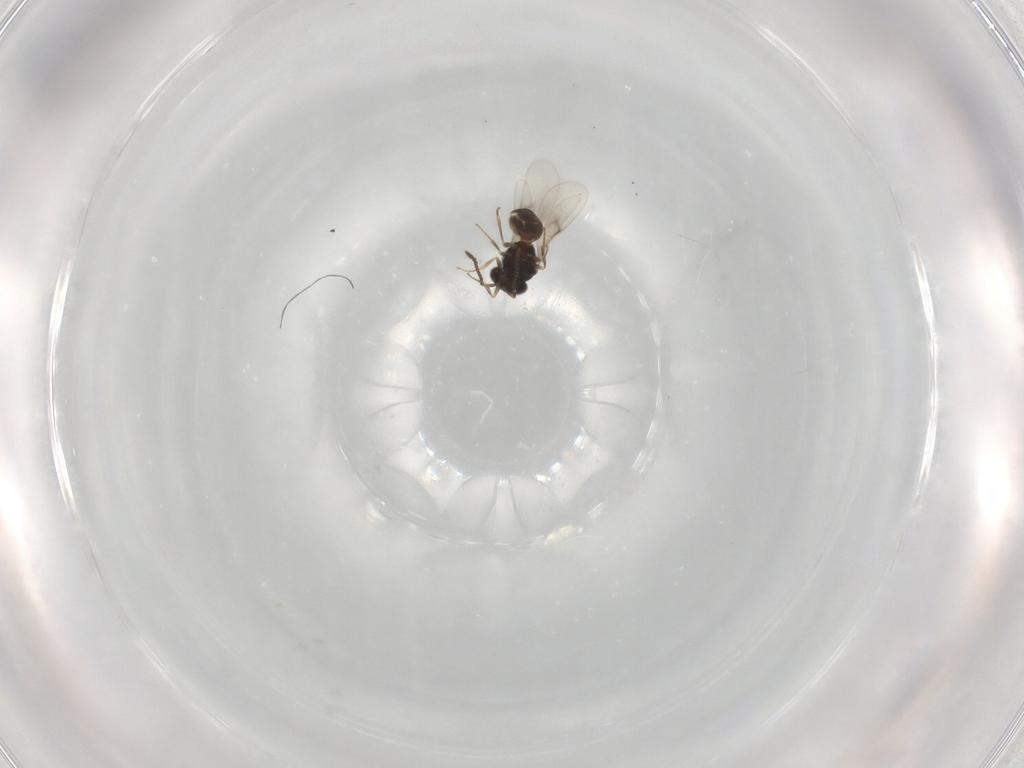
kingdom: Animalia
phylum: Arthropoda
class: Insecta
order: Hymenoptera
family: Scelionidae
